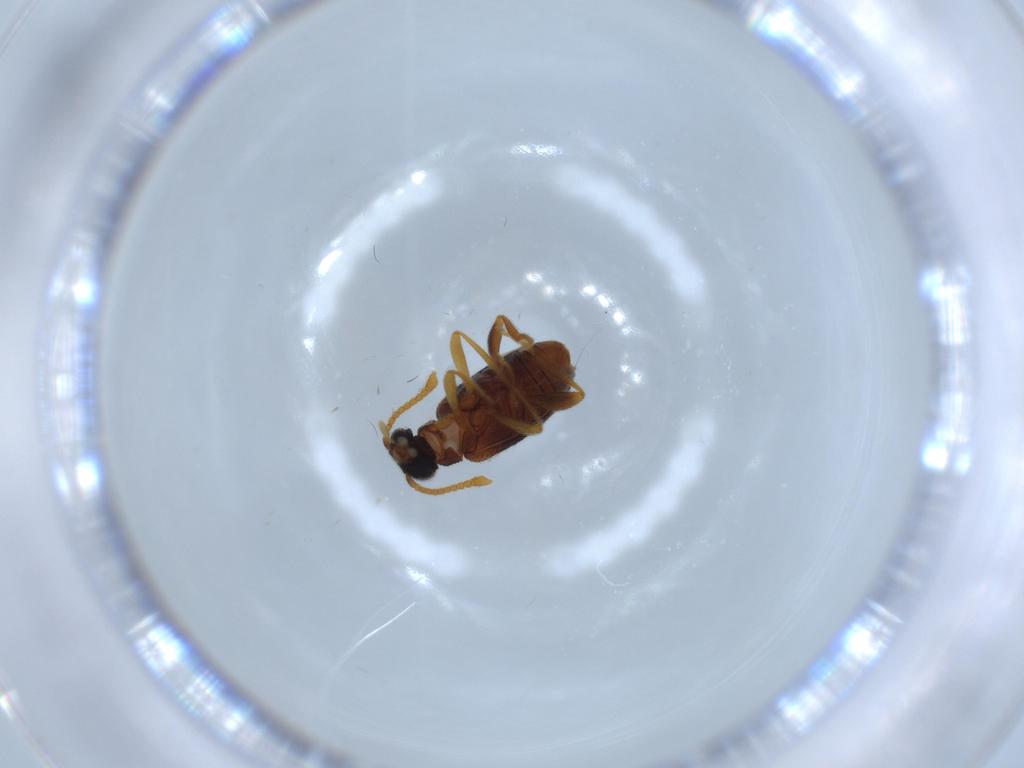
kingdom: Animalia
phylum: Arthropoda
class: Insecta
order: Coleoptera
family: Aderidae
